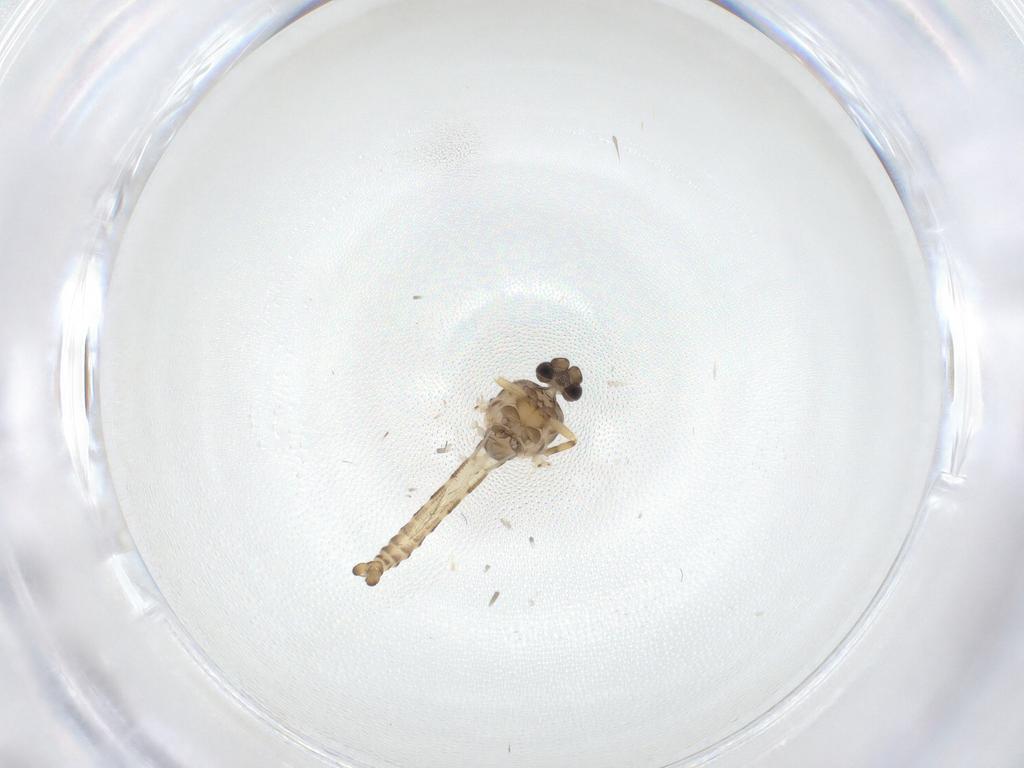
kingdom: Animalia
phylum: Arthropoda
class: Insecta
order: Diptera
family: Ceratopogonidae
